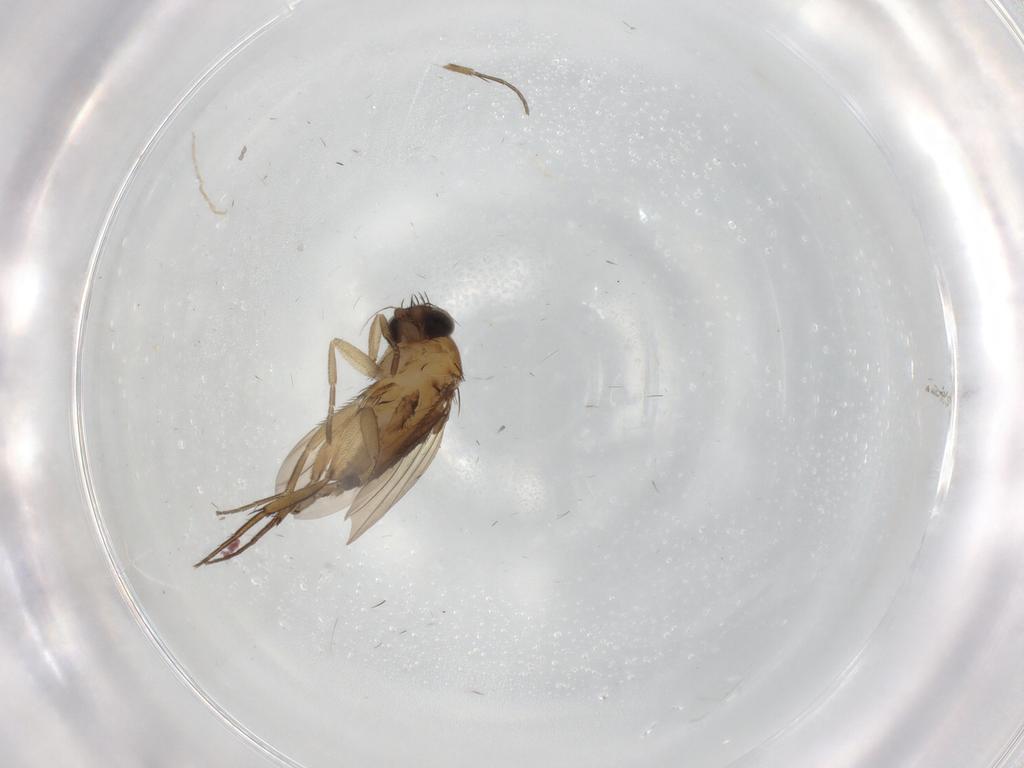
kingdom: Animalia
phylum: Arthropoda
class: Insecta
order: Diptera
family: Phoridae
